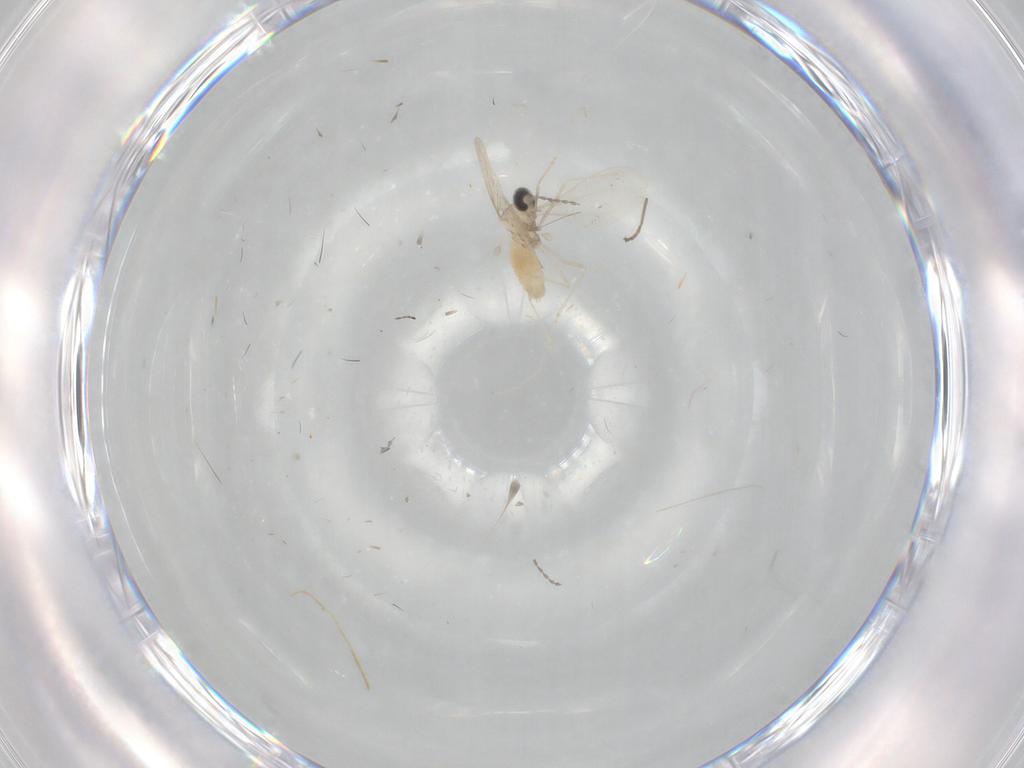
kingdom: Animalia
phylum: Arthropoda
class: Insecta
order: Diptera
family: Cecidomyiidae
